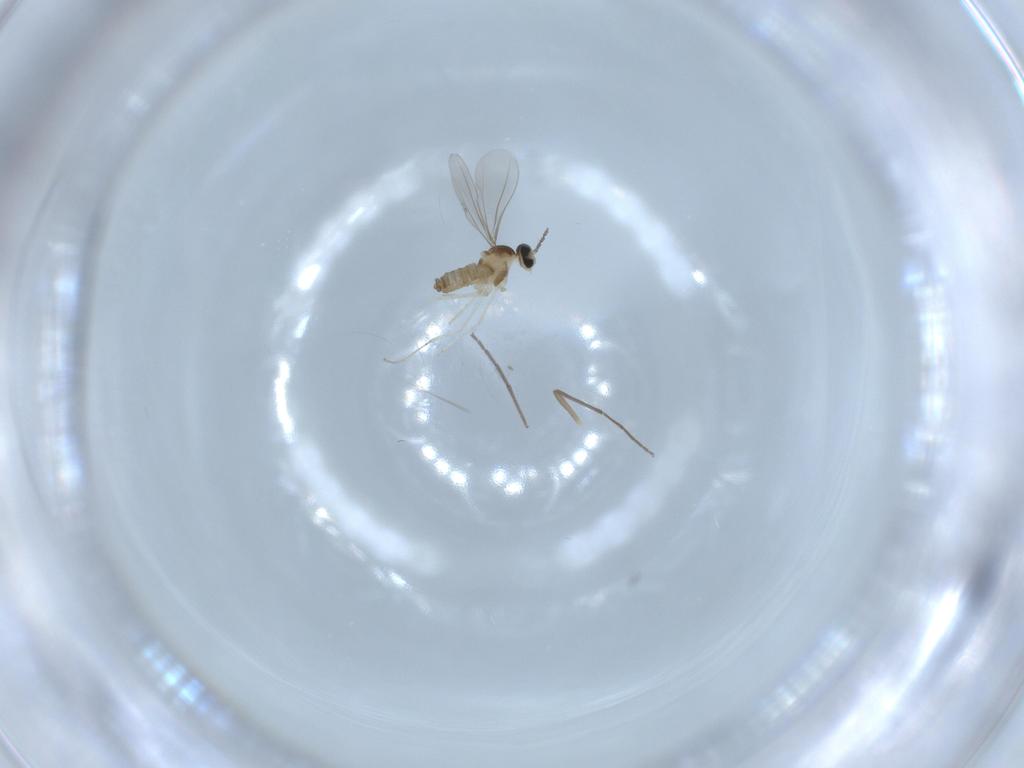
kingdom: Animalia
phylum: Arthropoda
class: Insecta
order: Diptera
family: Chironomidae
